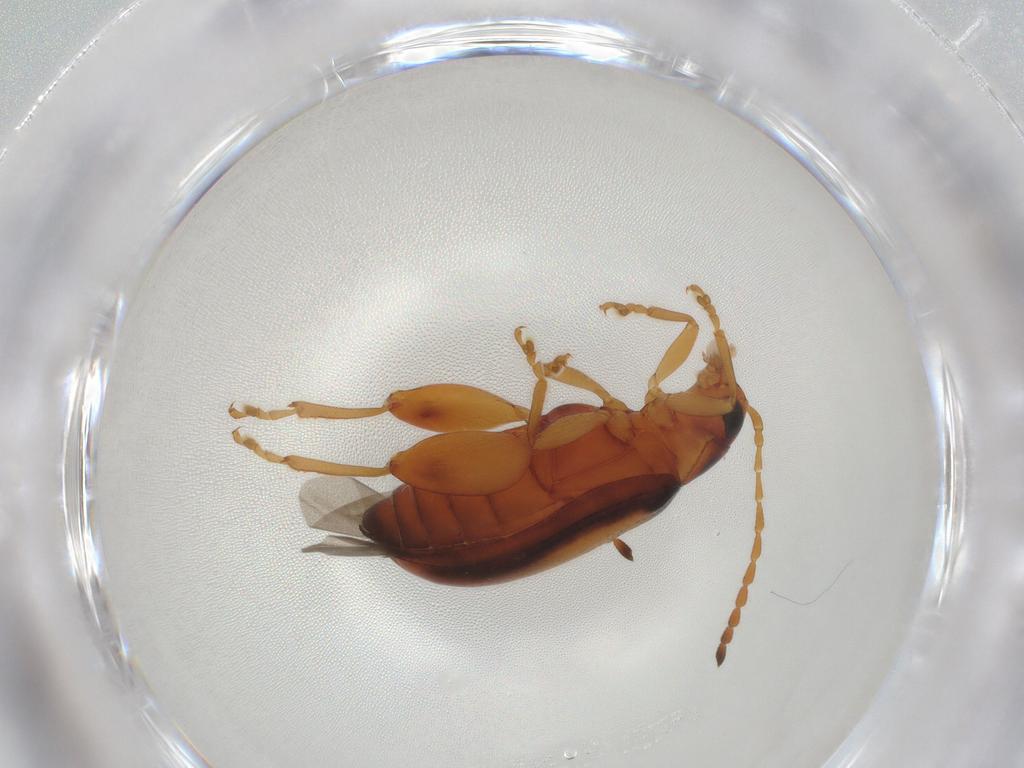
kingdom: Animalia
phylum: Arthropoda
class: Insecta
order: Coleoptera
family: Chrysomelidae
